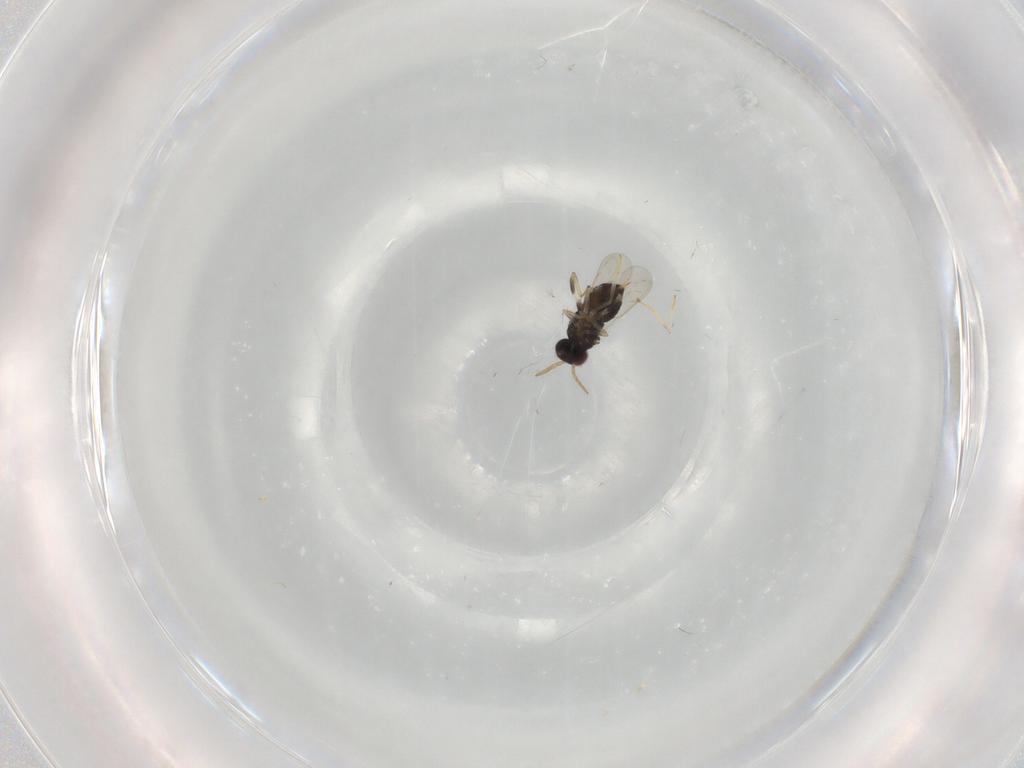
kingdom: Animalia
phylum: Arthropoda
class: Insecta
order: Hymenoptera
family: Aphelinidae
